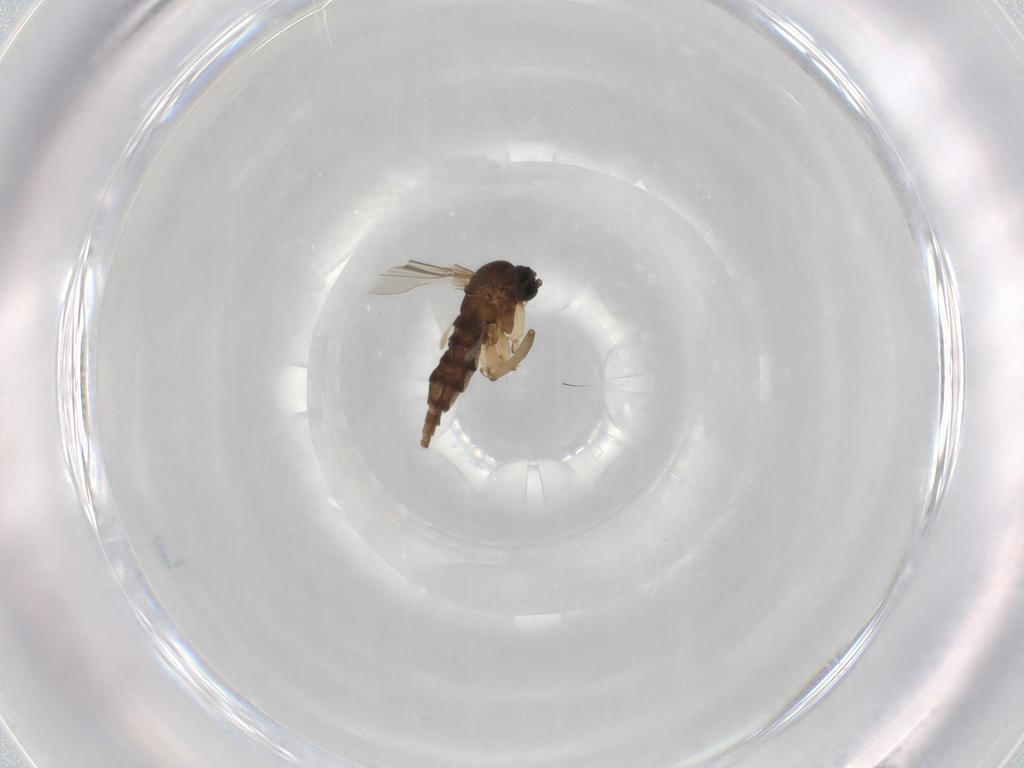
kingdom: Animalia
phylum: Arthropoda
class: Insecta
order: Diptera
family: Sciaridae
